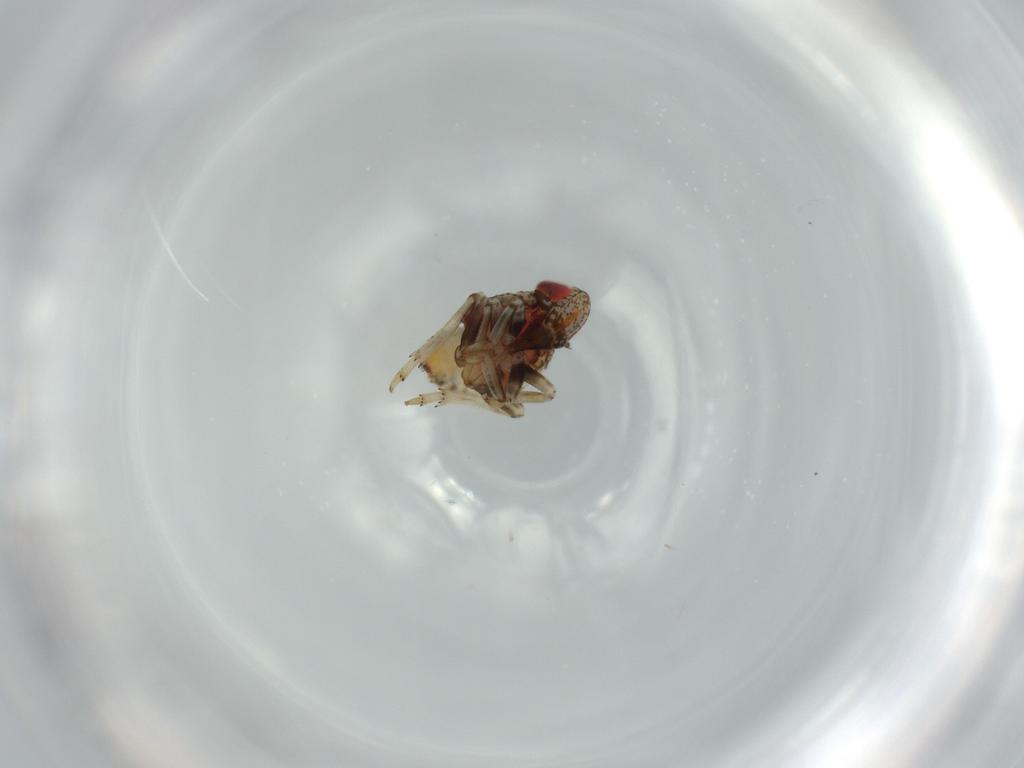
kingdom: Animalia
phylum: Arthropoda
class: Insecta
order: Hemiptera
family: Issidae
